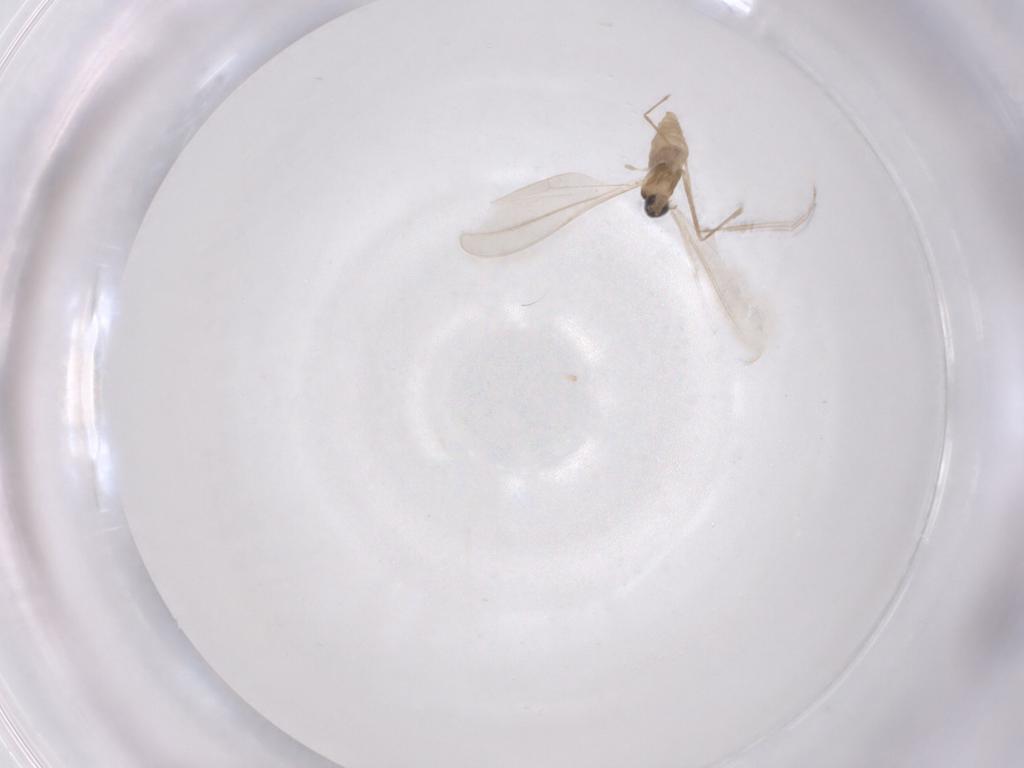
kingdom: Animalia
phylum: Arthropoda
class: Insecta
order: Diptera
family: Cecidomyiidae
